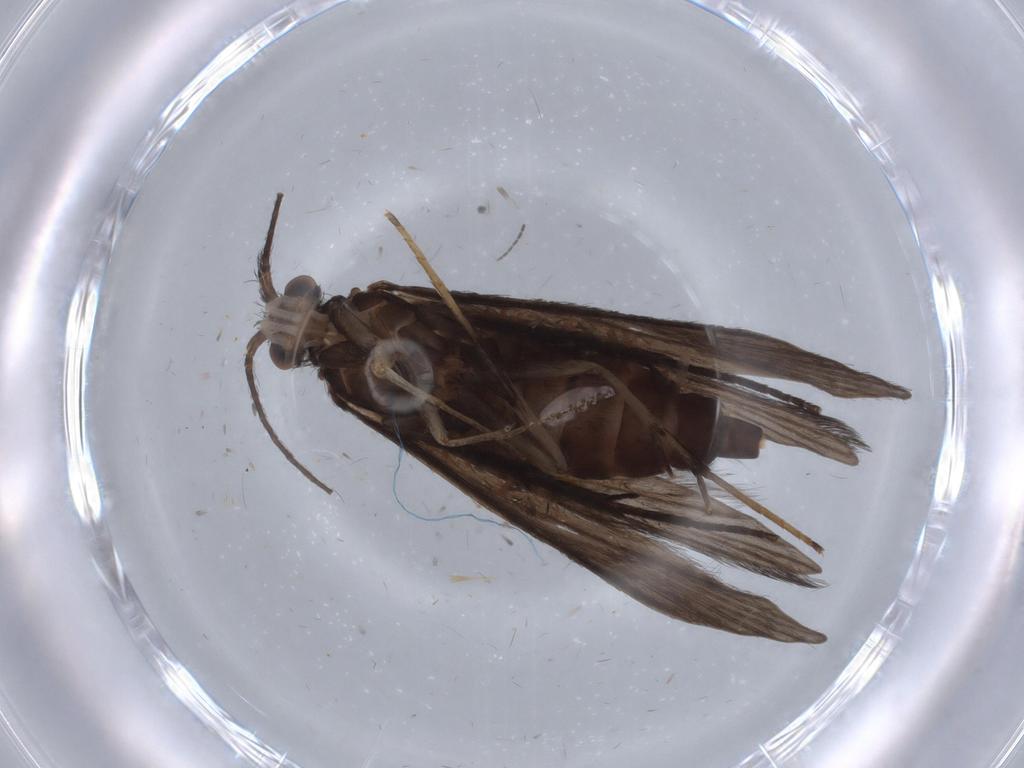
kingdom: Animalia
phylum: Arthropoda
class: Insecta
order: Trichoptera
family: Xiphocentronidae
